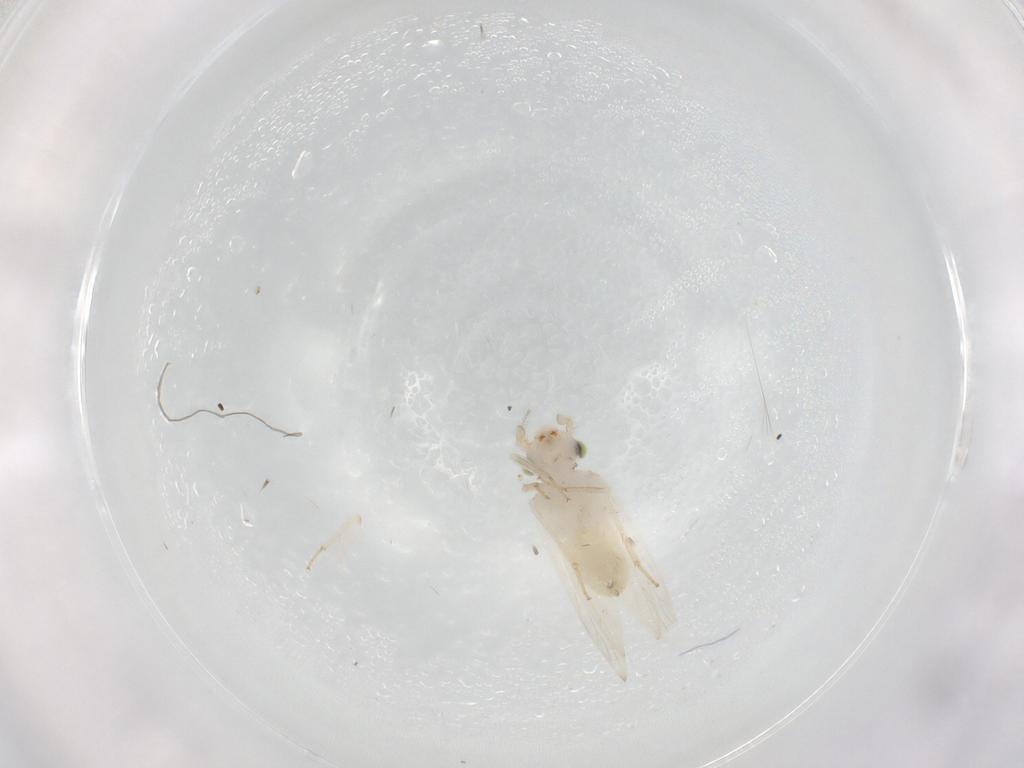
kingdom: Animalia
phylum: Arthropoda
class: Insecta
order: Psocodea
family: Lepidopsocidae
